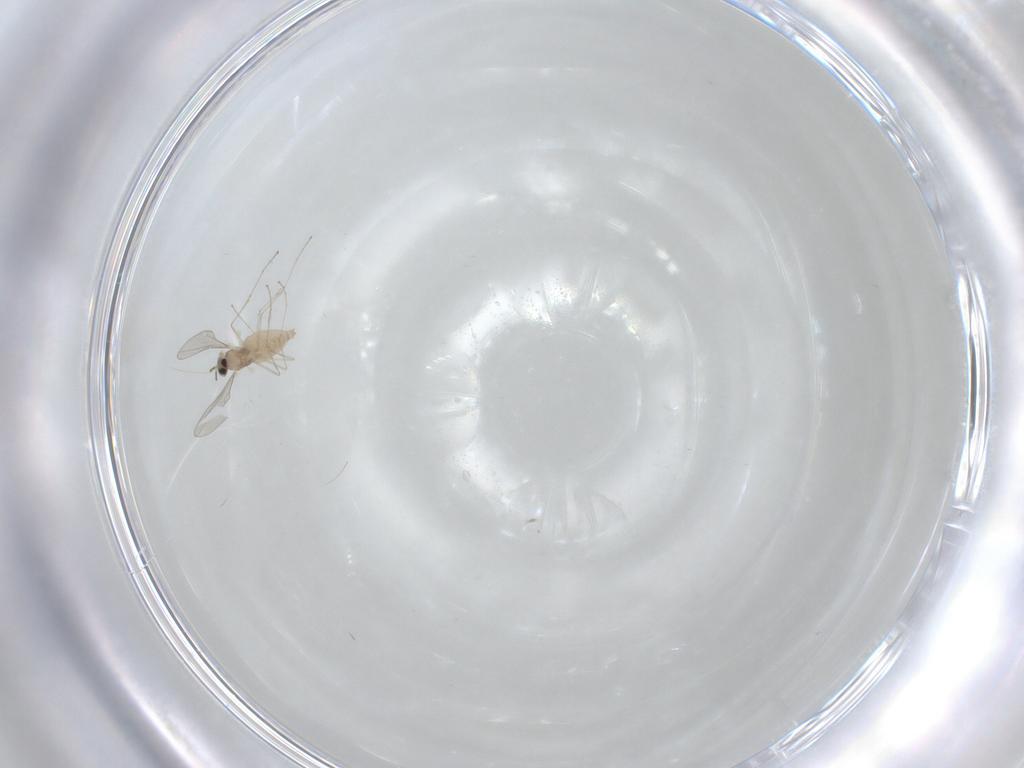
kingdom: Animalia
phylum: Arthropoda
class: Insecta
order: Diptera
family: Cecidomyiidae
